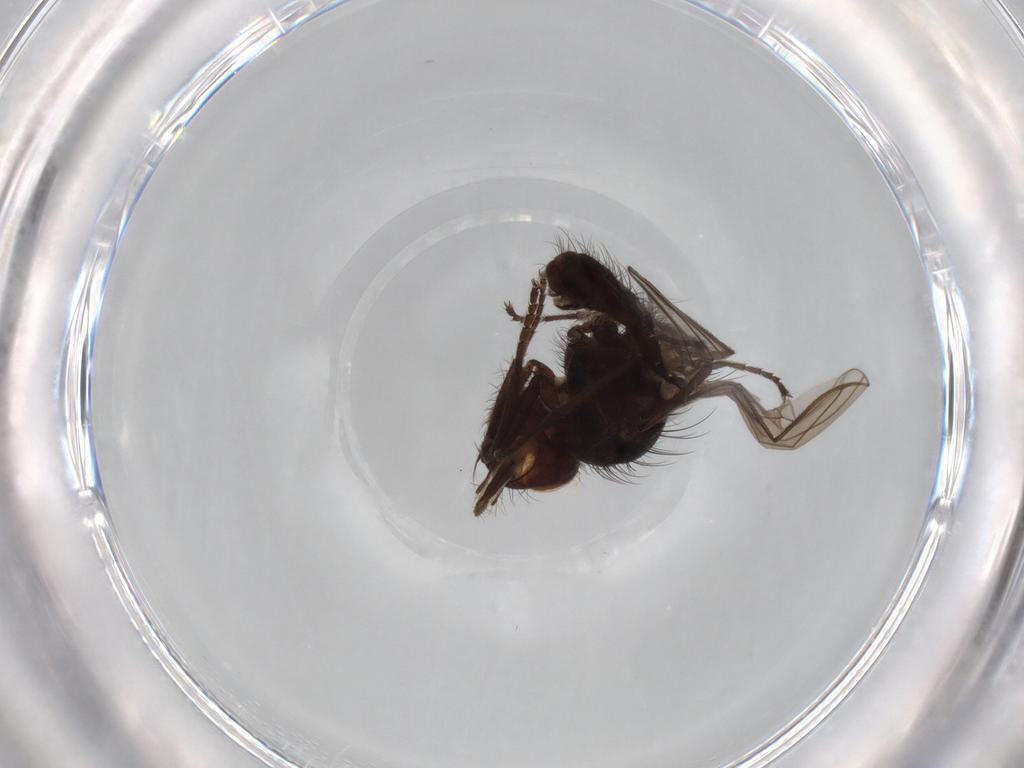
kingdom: Animalia
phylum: Arthropoda
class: Insecta
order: Diptera
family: Anthomyiidae
